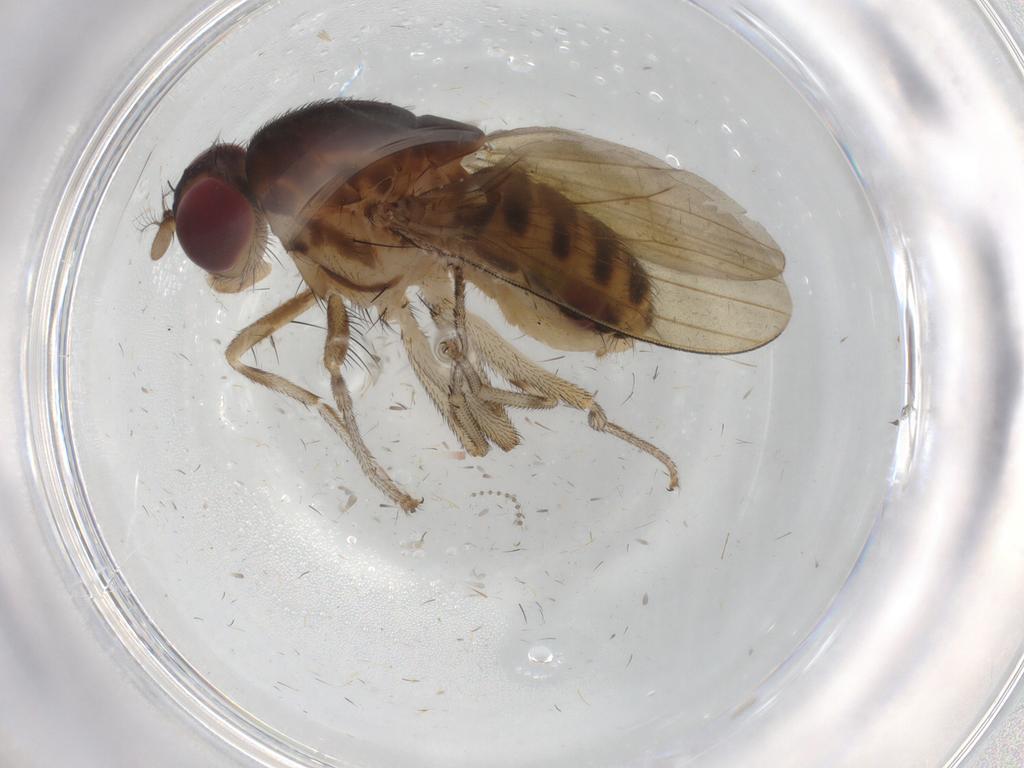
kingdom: Animalia
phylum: Arthropoda
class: Insecta
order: Diptera
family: Sciaridae
